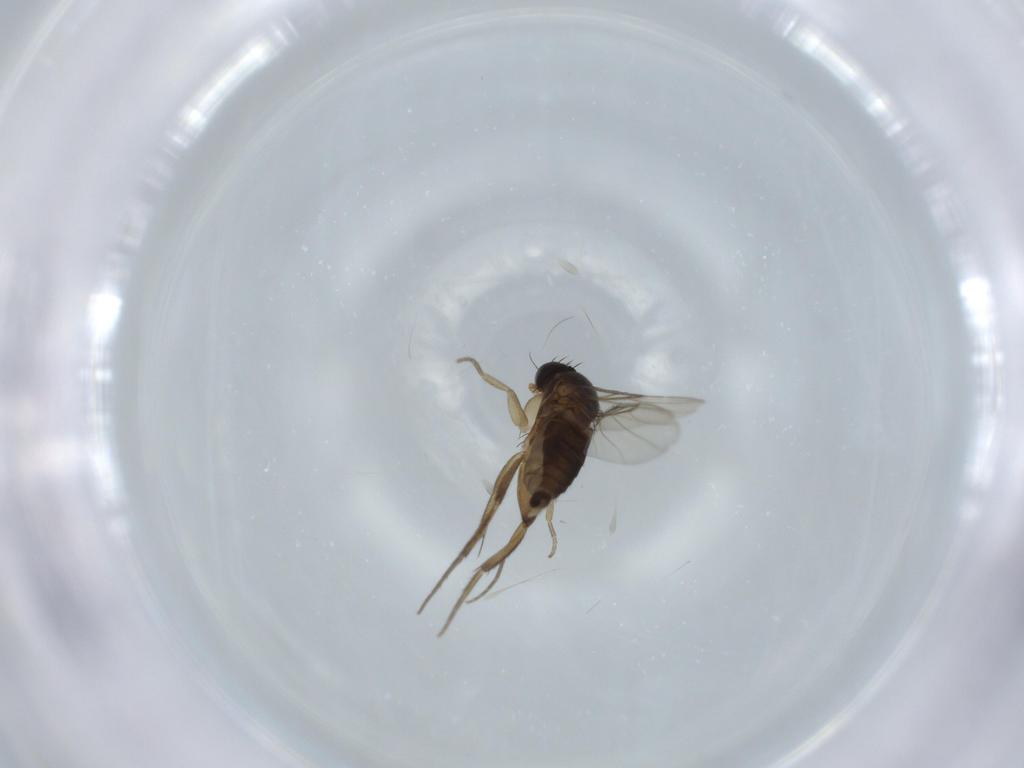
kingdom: Animalia
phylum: Arthropoda
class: Insecta
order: Diptera
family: Phoridae
